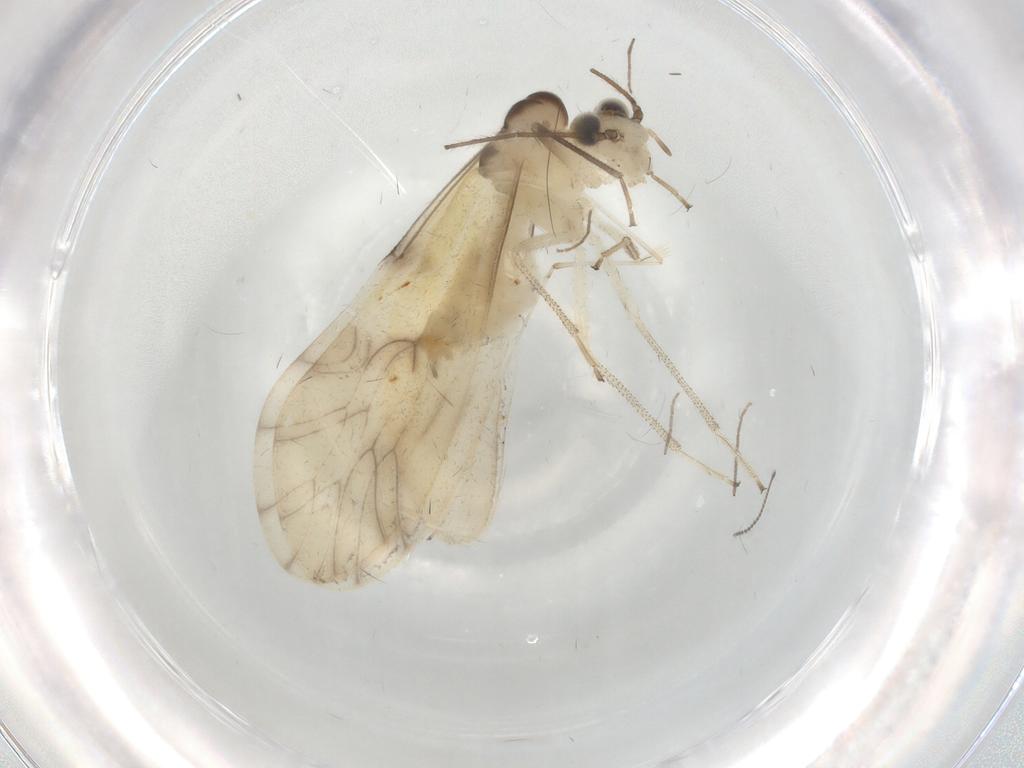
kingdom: Animalia
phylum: Arthropoda
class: Insecta
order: Psocodea
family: Caeciliusidae
